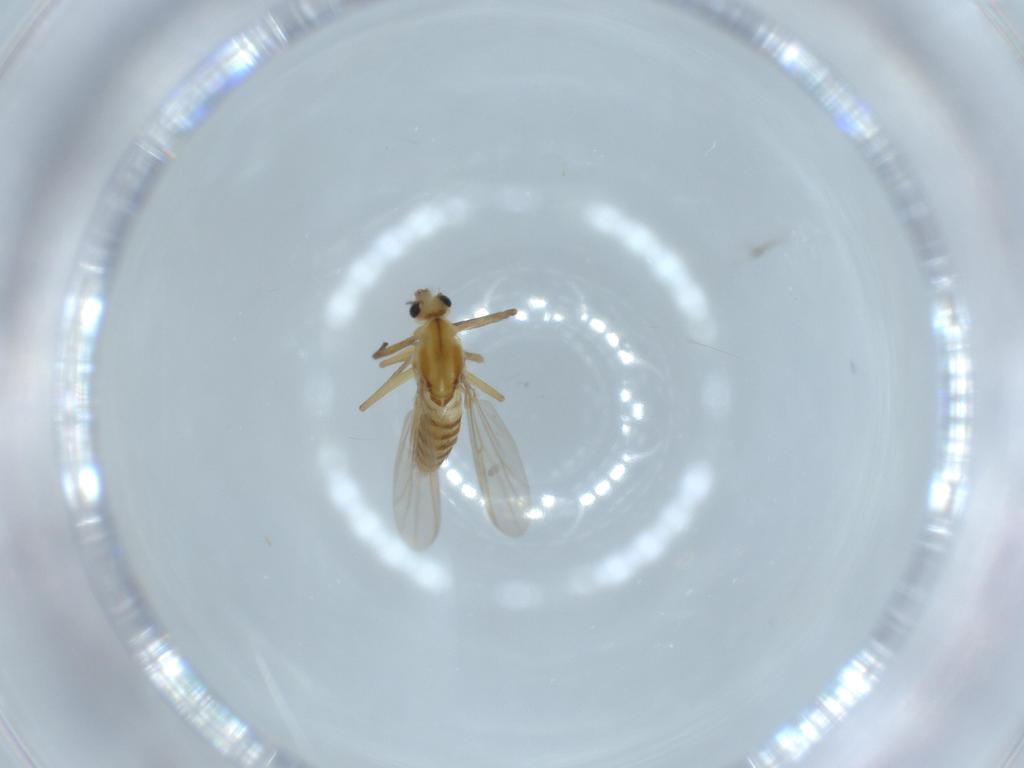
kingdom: Animalia
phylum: Arthropoda
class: Insecta
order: Diptera
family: Chironomidae
